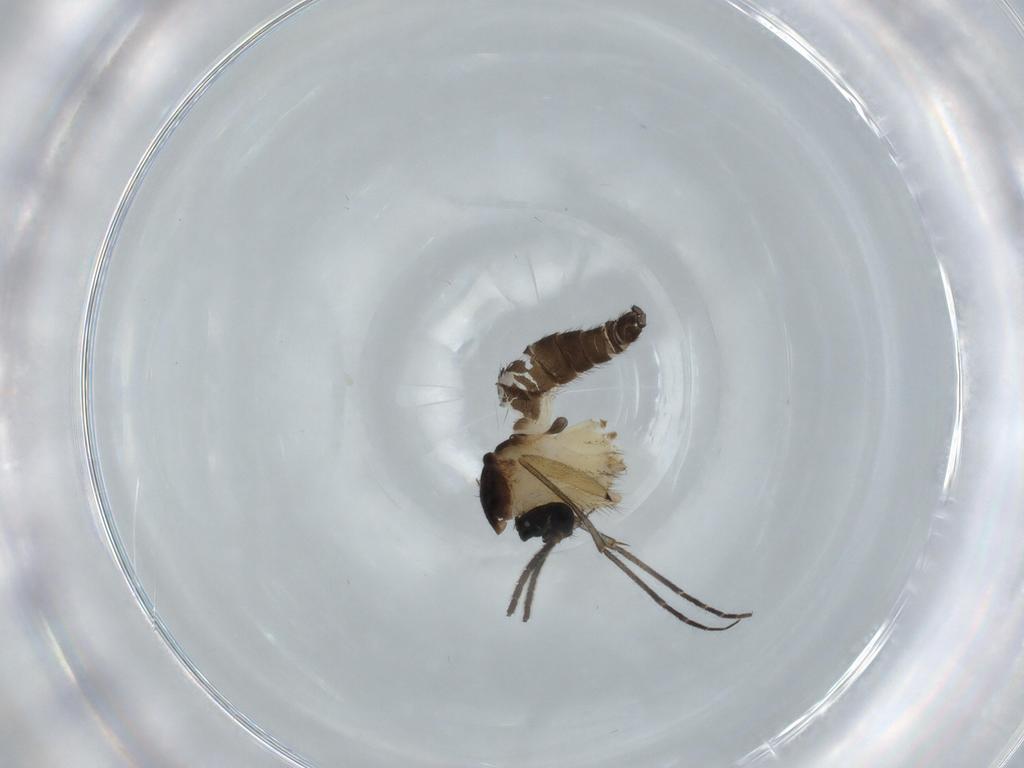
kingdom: Animalia
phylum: Arthropoda
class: Insecta
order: Diptera
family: Sciaridae
